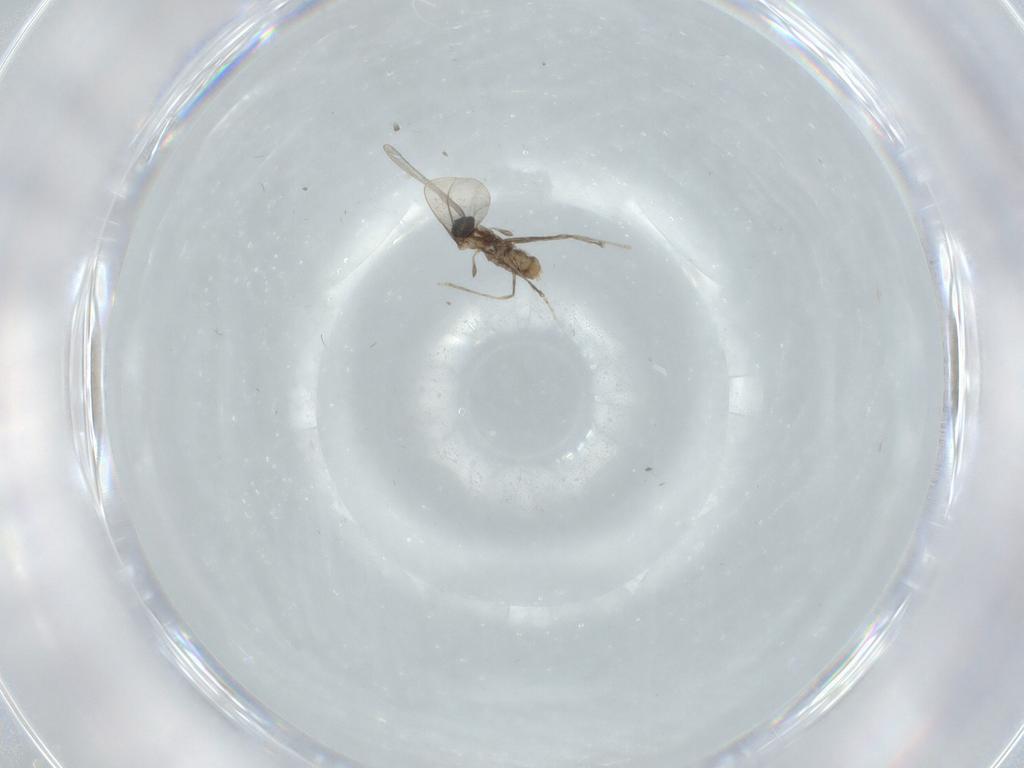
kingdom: Animalia
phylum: Arthropoda
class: Insecta
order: Diptera
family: Cecidomyiidae
